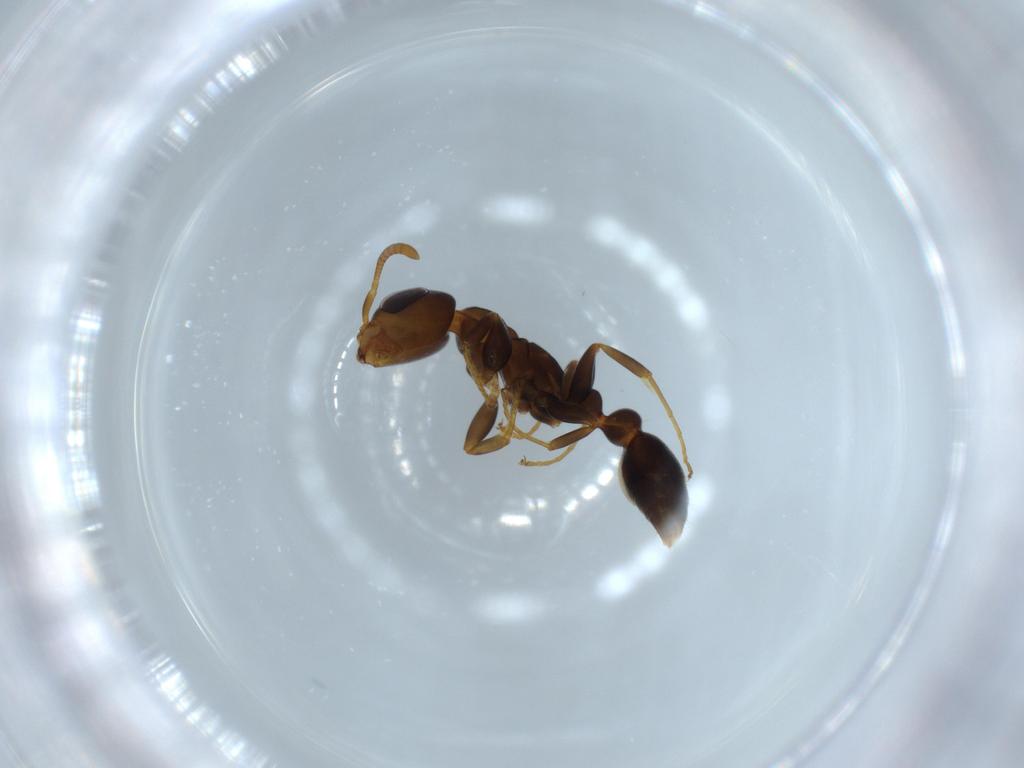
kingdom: Animalia
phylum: Arthropoda
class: Insecta
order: Hymenoptera
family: Formicidae
